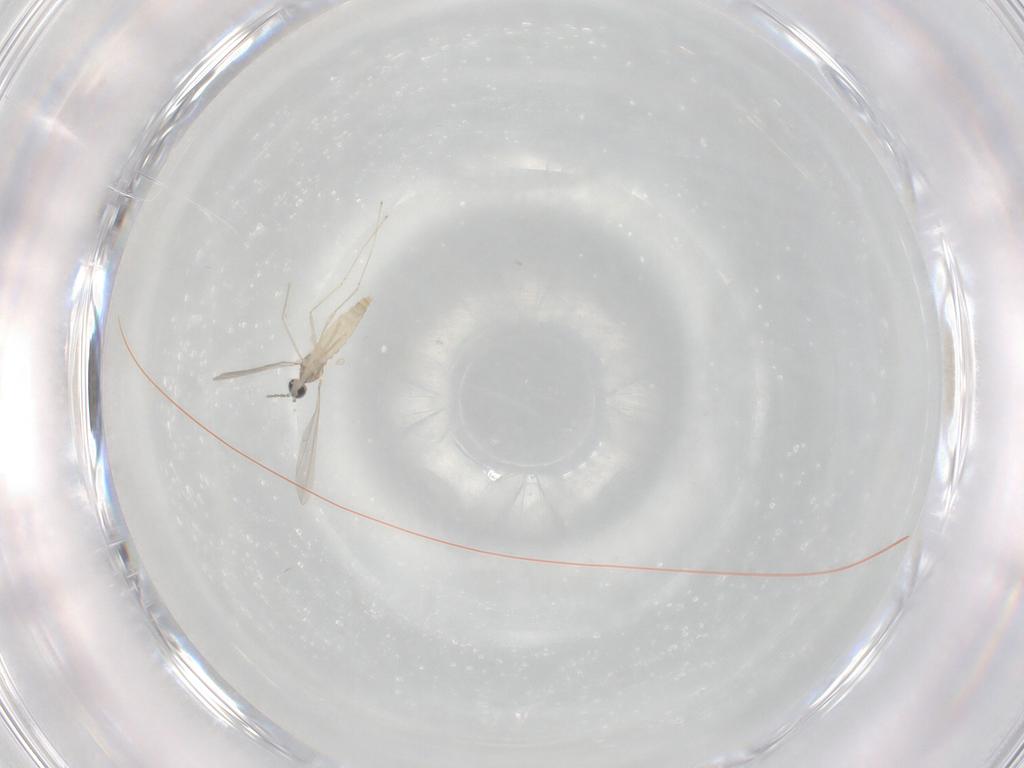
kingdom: Animalia
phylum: Arthropoda
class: Insecta
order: Diptera
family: Cecidomyiidae
